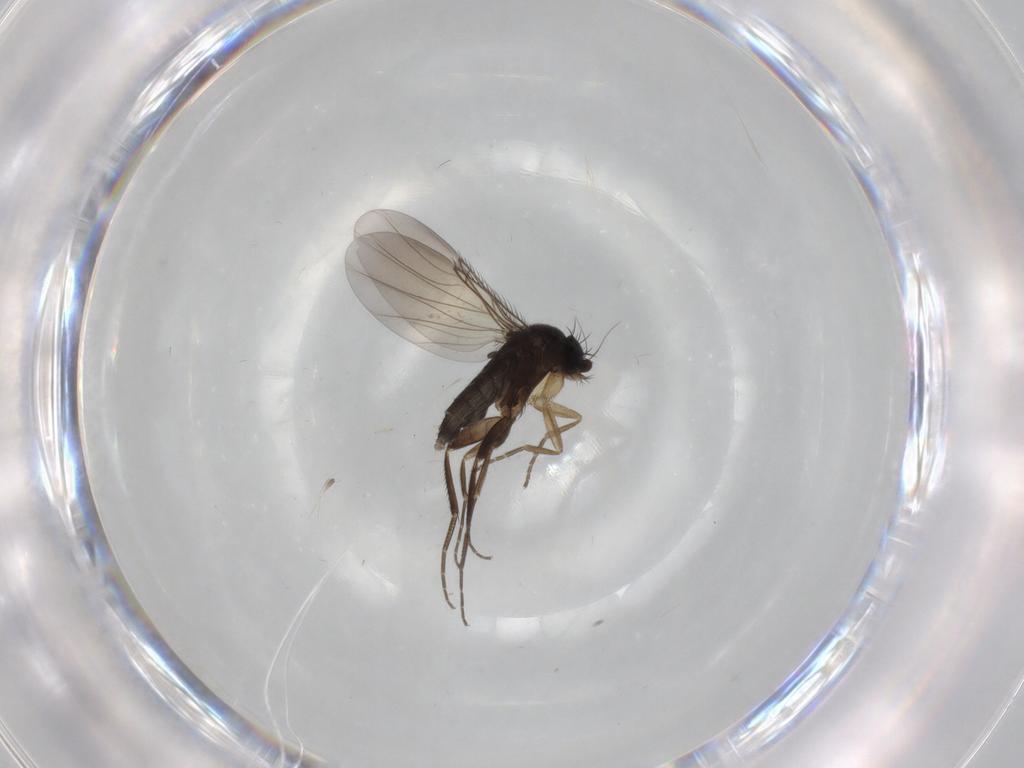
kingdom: Animalia
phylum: Arthropoda
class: Insecta
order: Diptera
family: Phoridae
